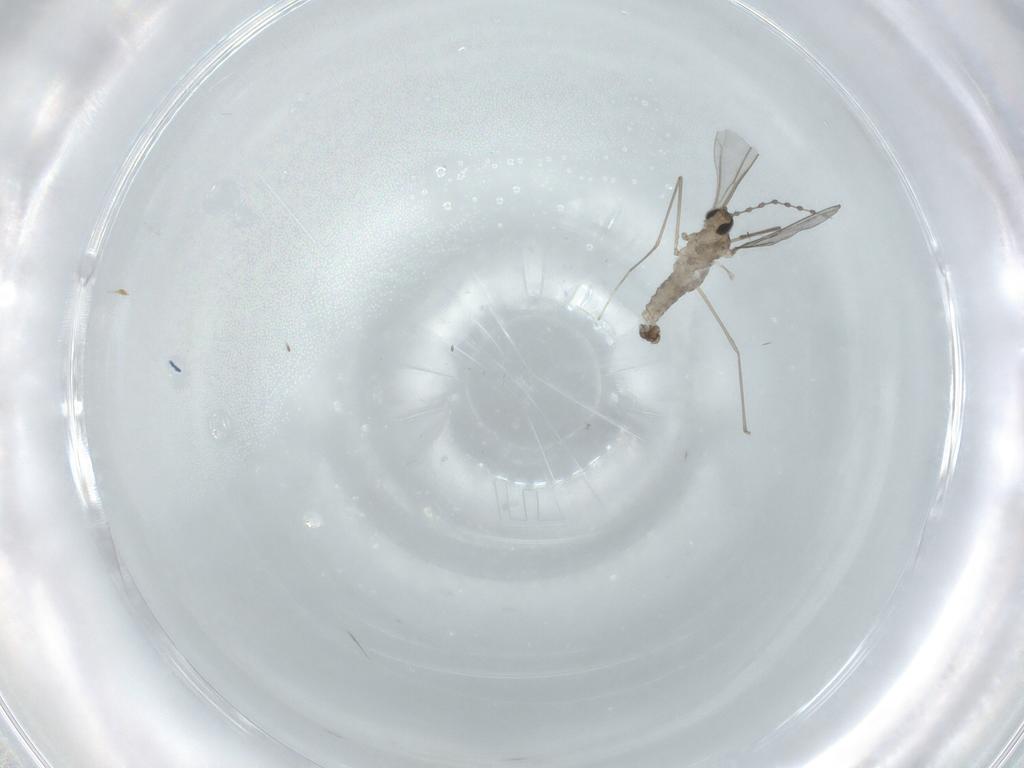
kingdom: Animalia
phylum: Arthropoda
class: Insecta
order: Diptera
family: Cecidomyiidae
